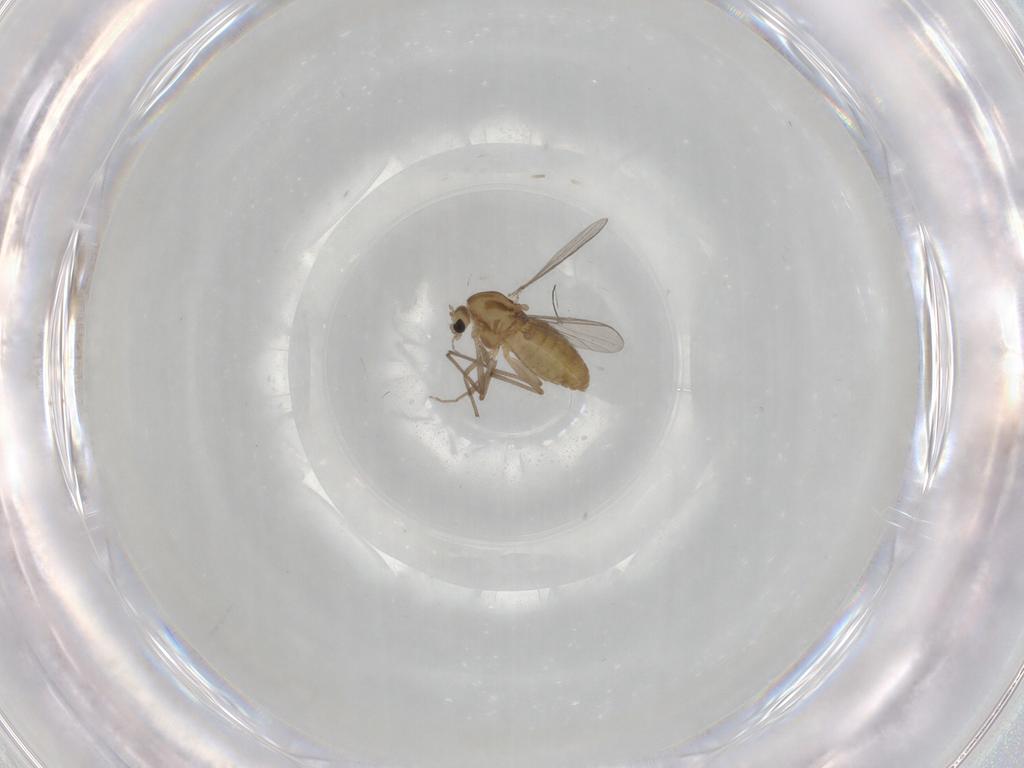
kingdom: Animalia
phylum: Arthropoda
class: Insecta
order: Diptera
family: Chironomidae
